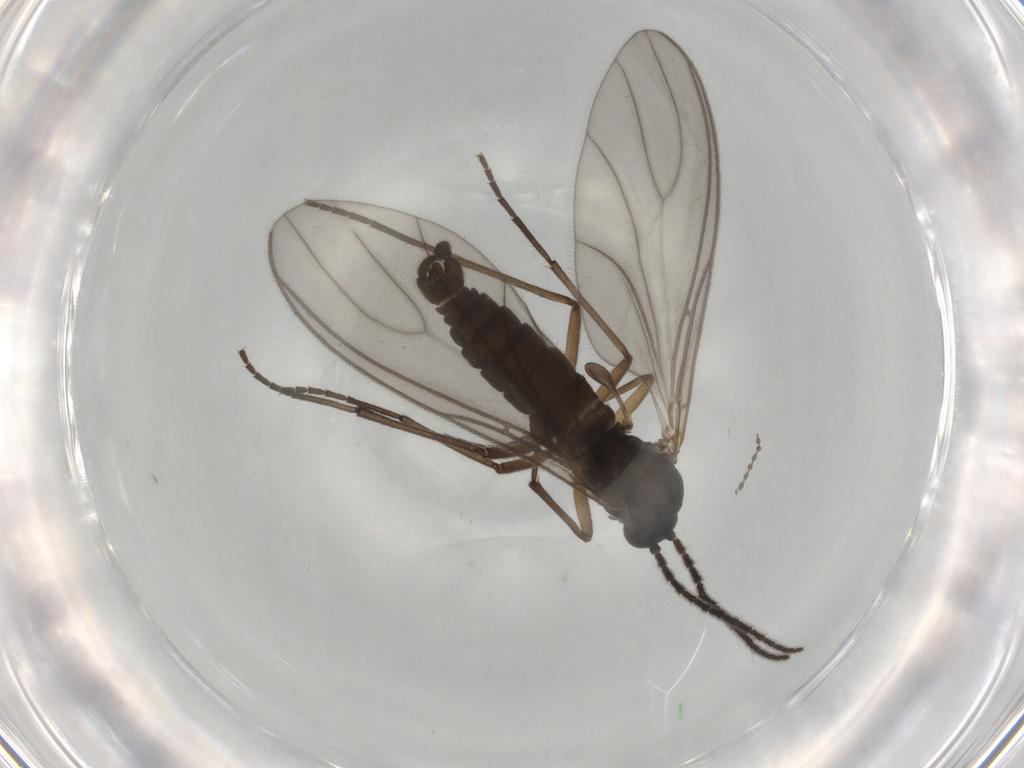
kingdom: Animalia
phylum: Arthropoda
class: Insecta
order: Diptera
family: Sciaridae
